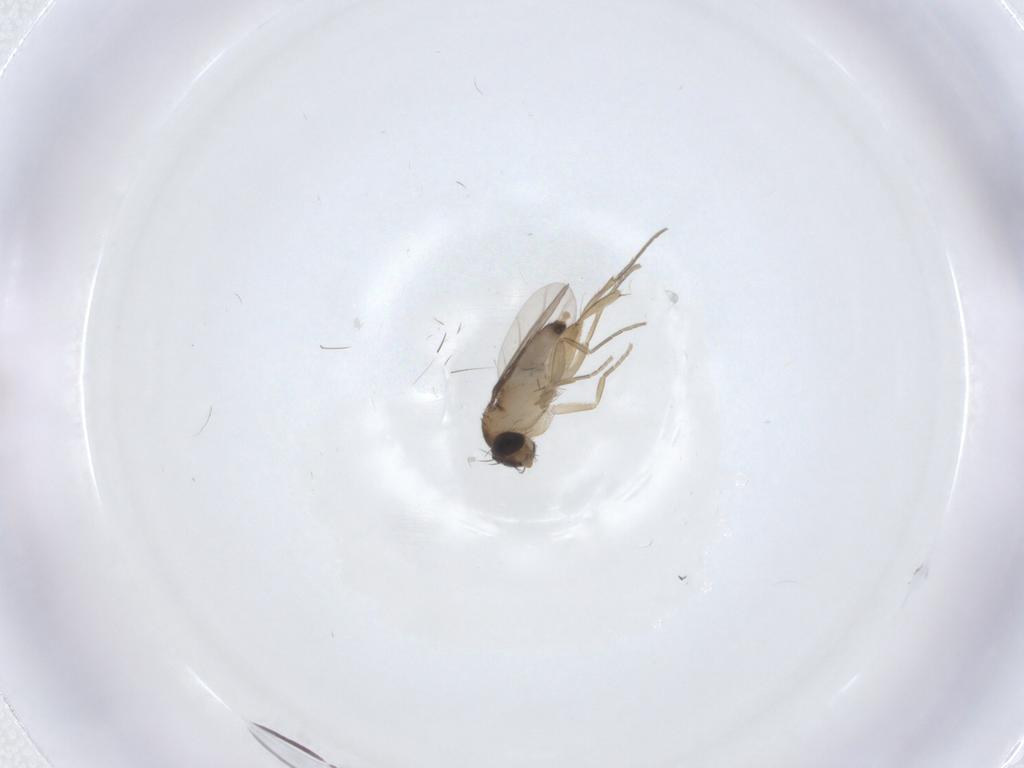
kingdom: Animalia
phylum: Arthropoda
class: Insecta
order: Diptera
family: Phoridae
